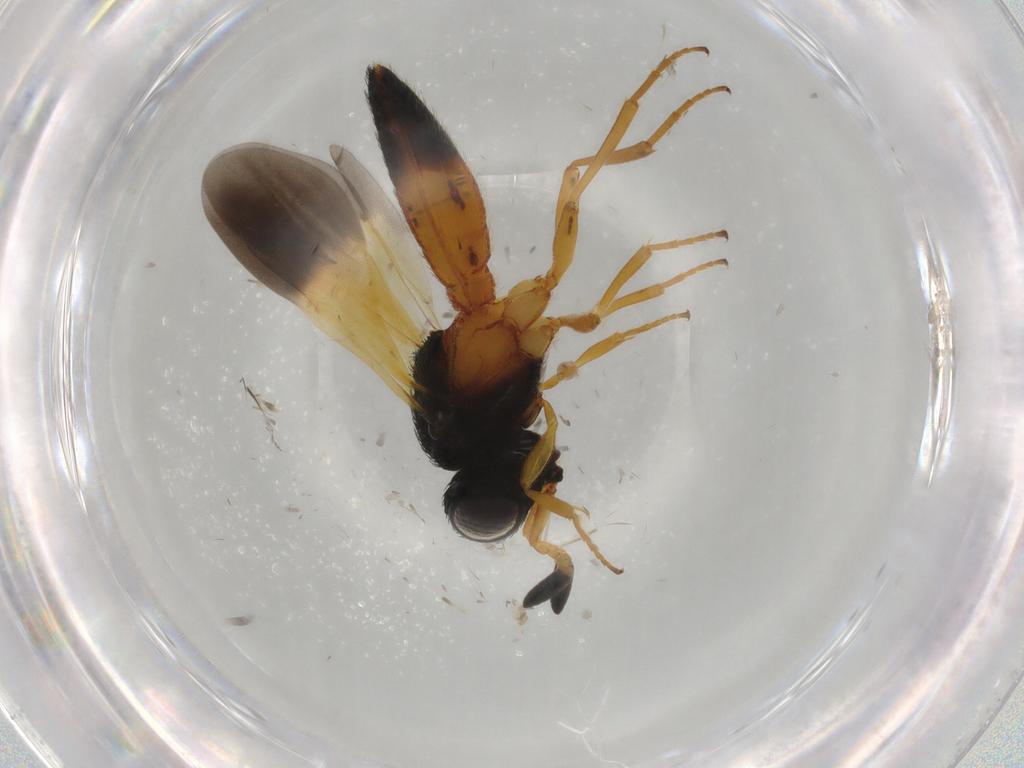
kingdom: Animalia
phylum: Arthropoda
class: Insecta
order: Hymenoptera
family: Scelionidae
